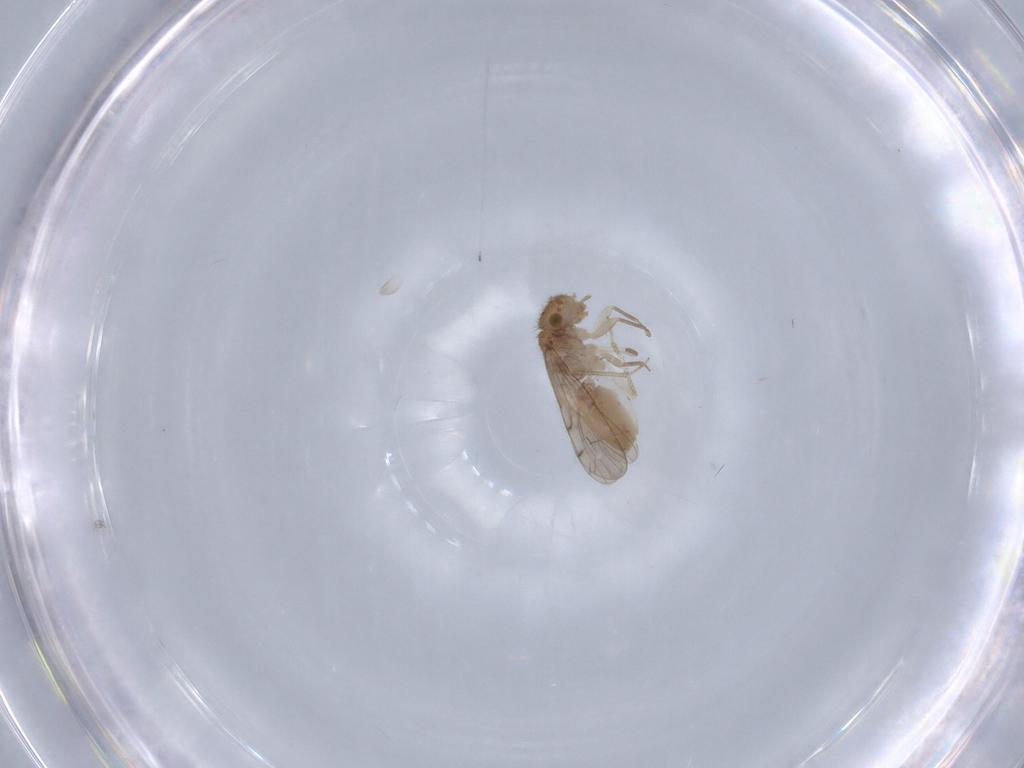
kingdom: Animalia
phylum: Arthropoda
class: Insecta
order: Psocodea
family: Ectopsocidae
